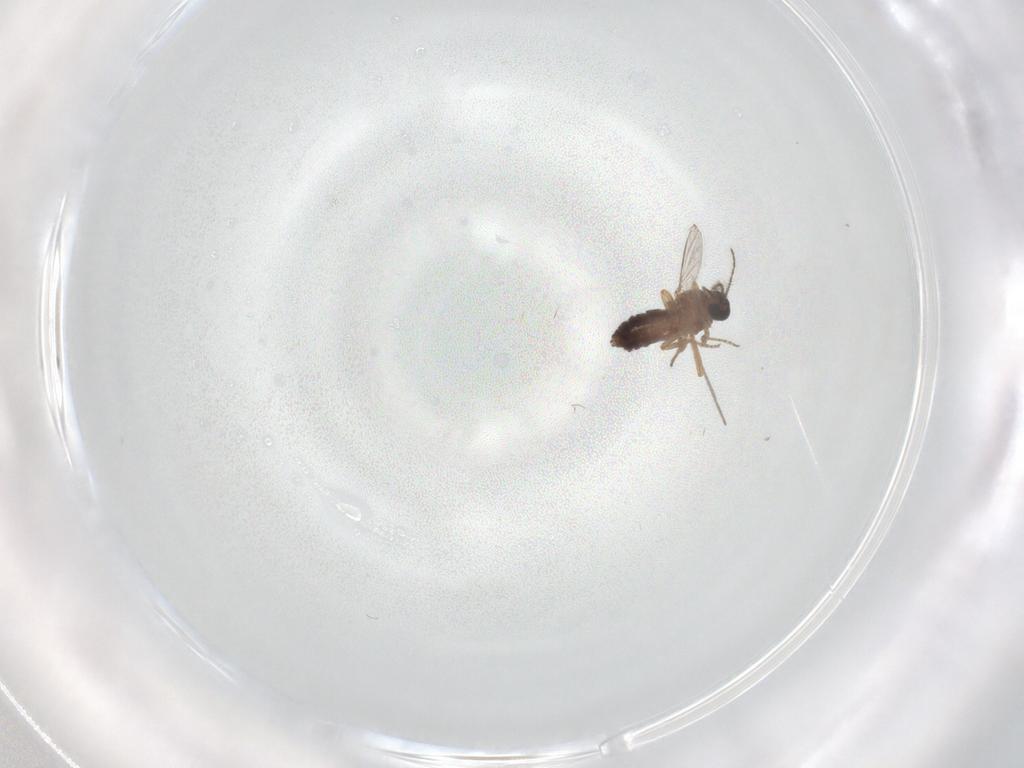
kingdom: Animalia
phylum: Arthropoda
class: Insecta
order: Diptera
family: Ceratopogonidae
